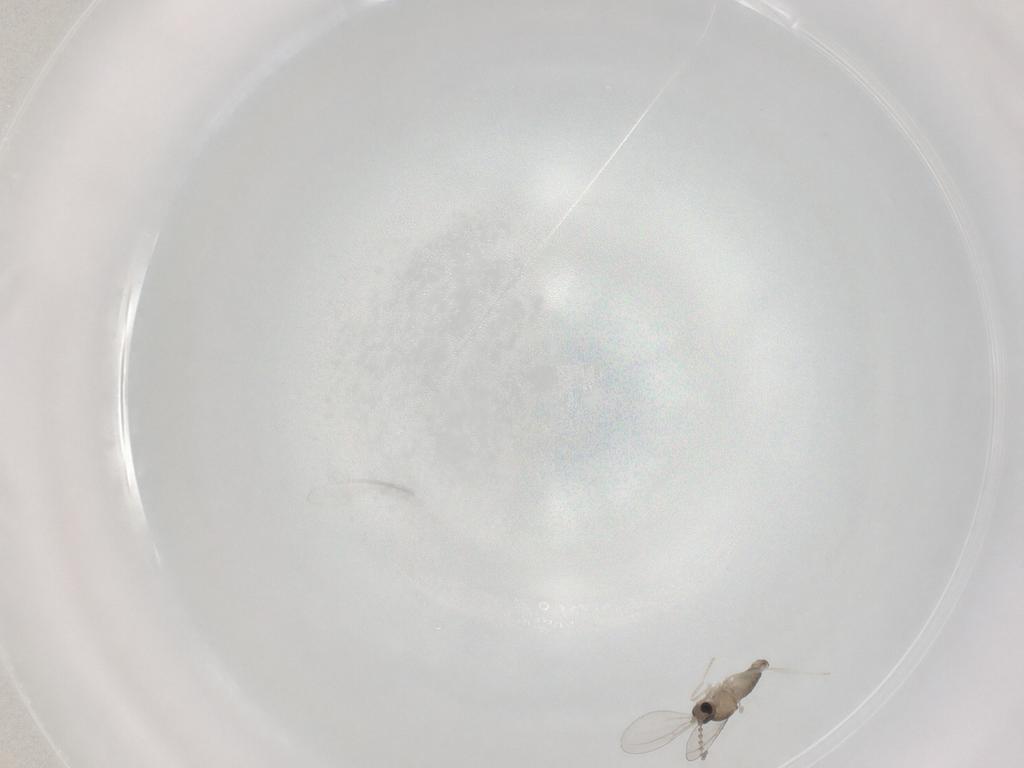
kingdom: Animalia
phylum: Arthropoda
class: Insecta
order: Diptera
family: Cecidomyiidae
